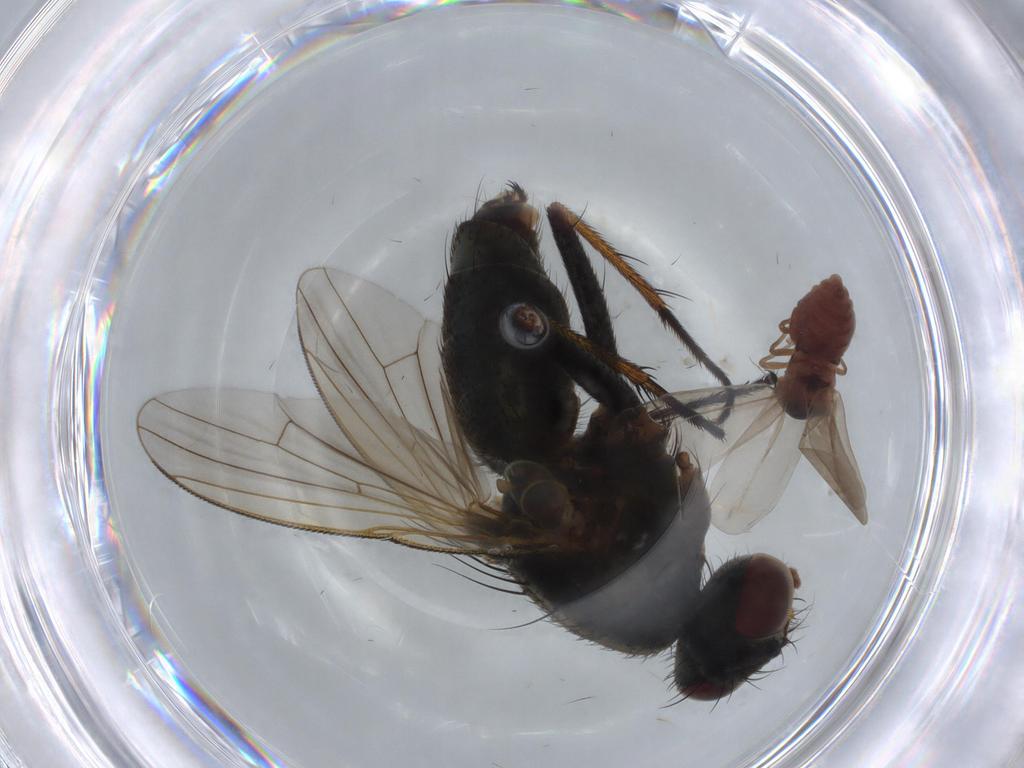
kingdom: Animalia
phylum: Arthropoda
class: Insecta
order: Hemiptera
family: Aleyrodidae
